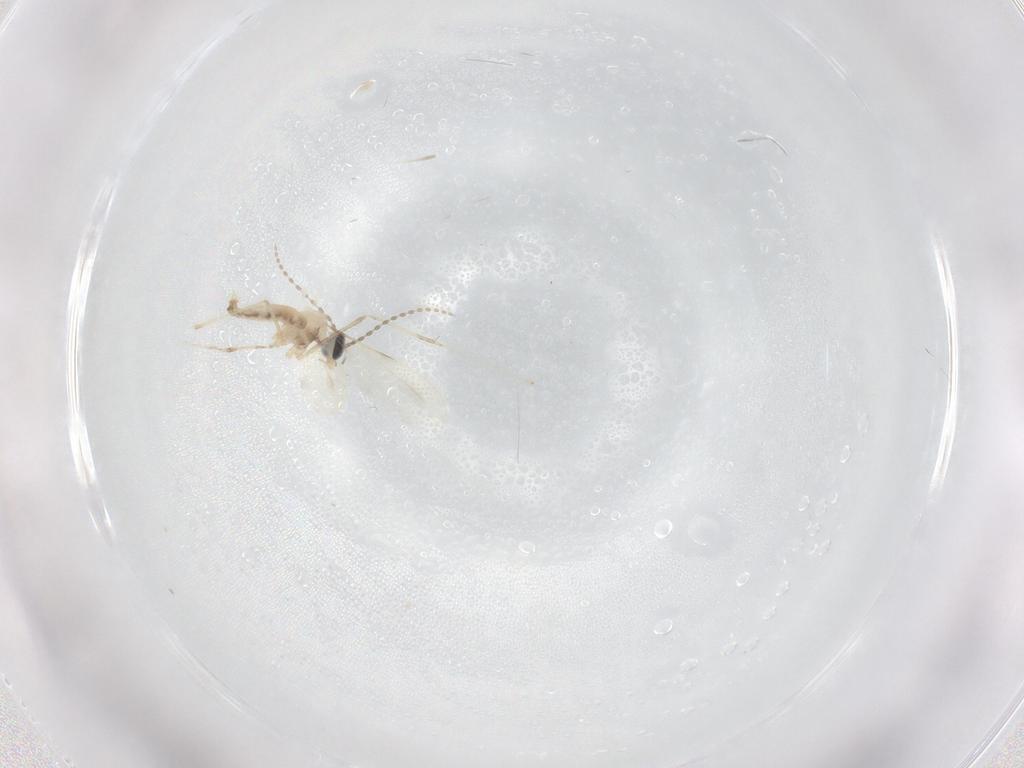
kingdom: Animalia
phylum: Arthropoda
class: Insecta
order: Diptera
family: Cecidomyiidae
